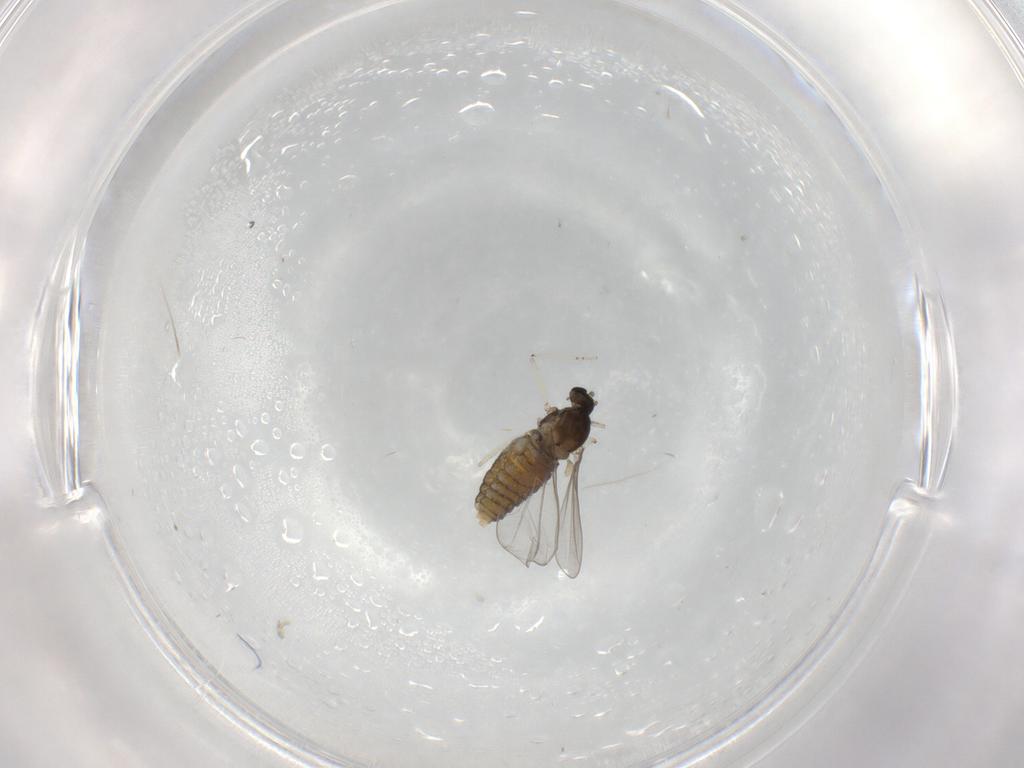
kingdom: Animalia
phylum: Arthropoda
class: Insecta
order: Diptera
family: Cecidomyiidae
